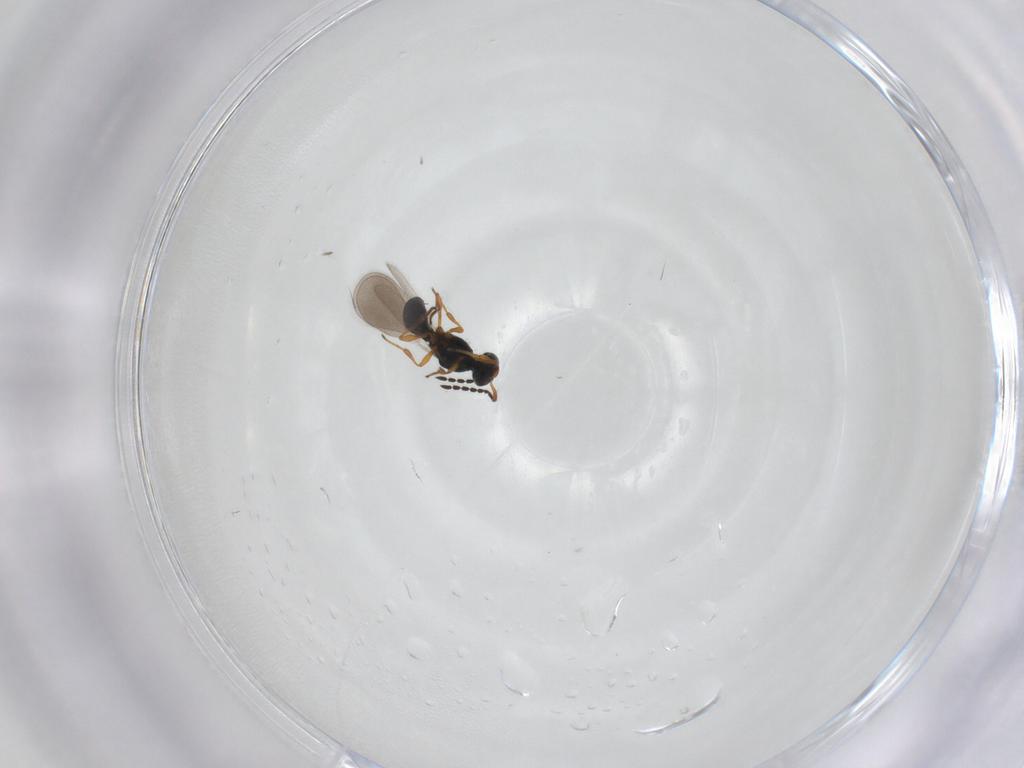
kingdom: Animalia
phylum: Arthropoda
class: Insecta
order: Hymenoptera
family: Platygastridae
